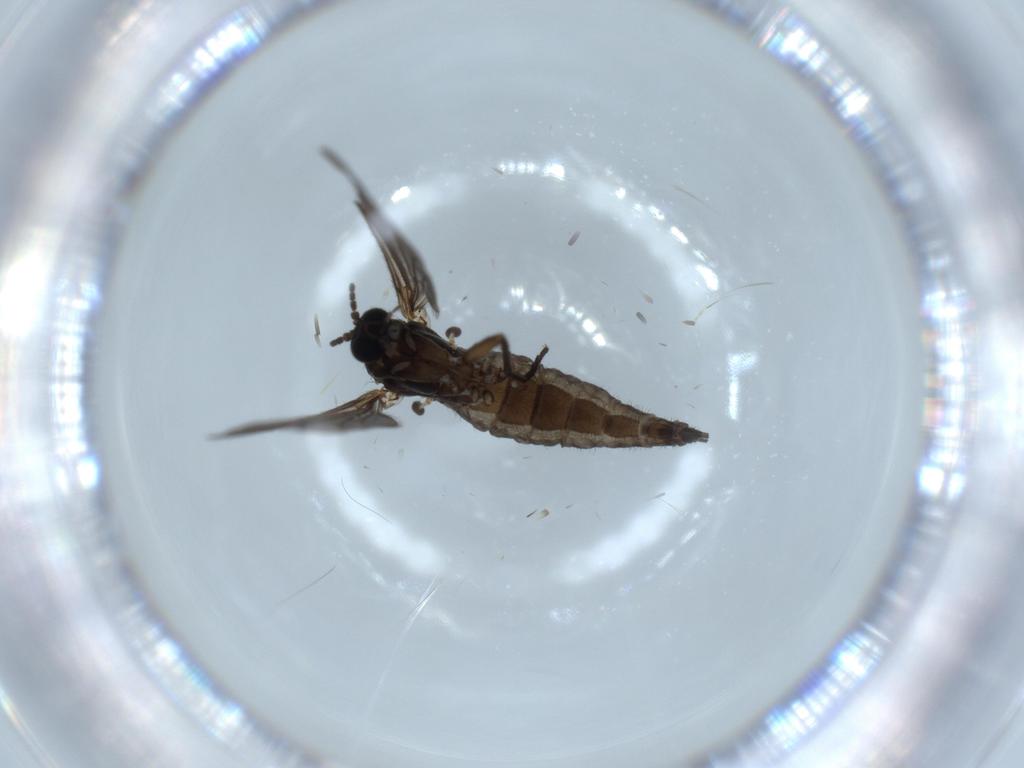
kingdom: Animalia
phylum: Arthropoda
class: Insecta
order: Diptera
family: Sciaridae
